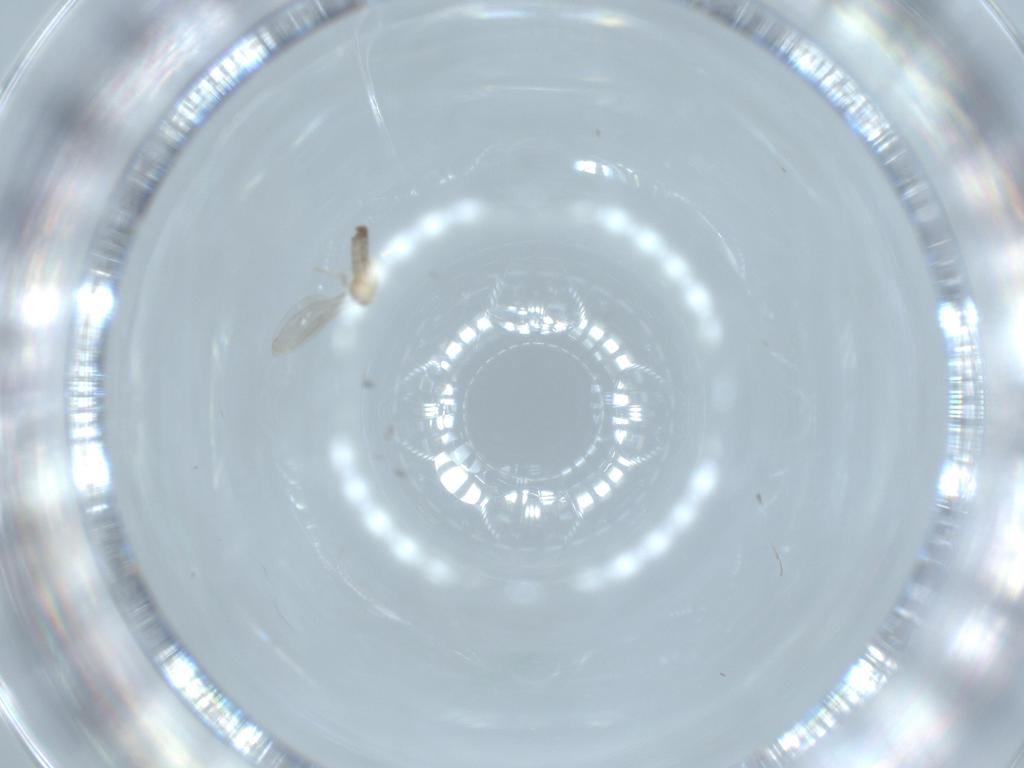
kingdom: Animalia
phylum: Arthropoda
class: Insecta
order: Diptera
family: Cecidomyiidae
